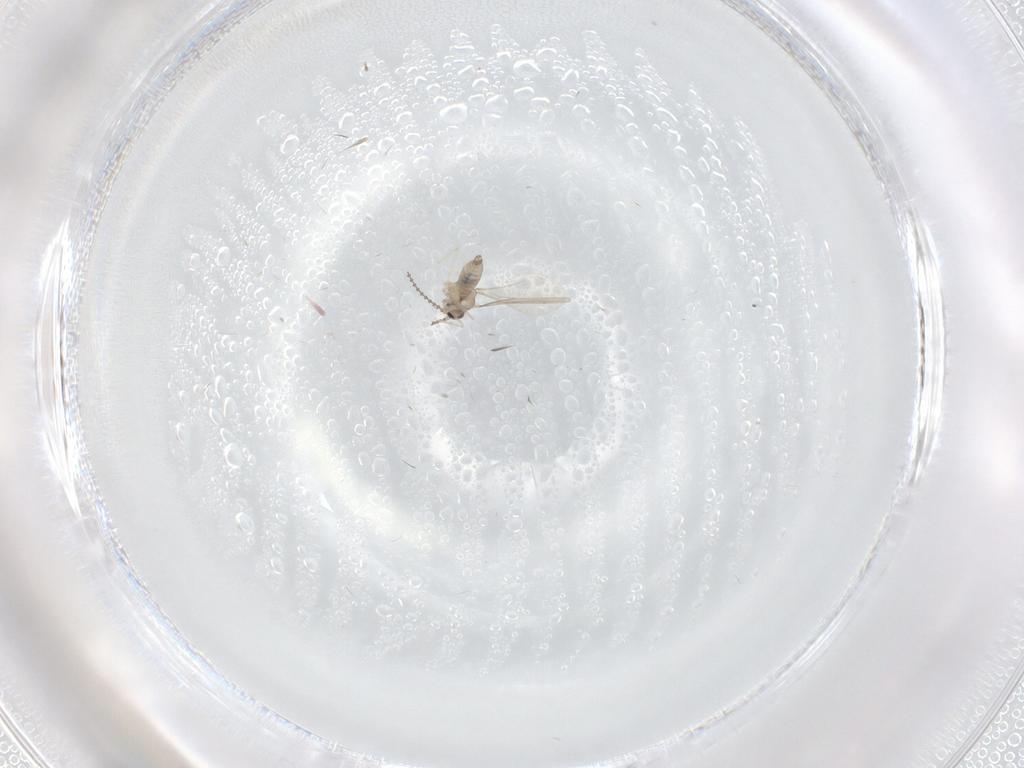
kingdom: Animalia
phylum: Arthropoda
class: Insecta
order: Diptera
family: Cecidomyiidae
